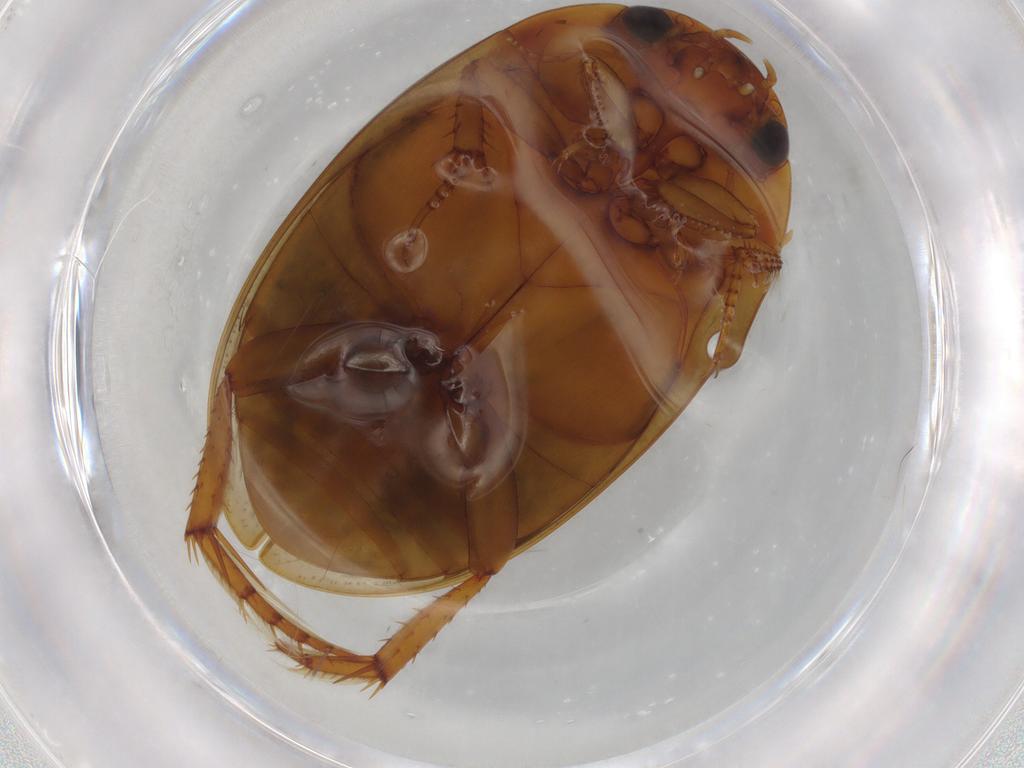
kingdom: Animalia
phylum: Arthropoda
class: Insecta
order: Coleoptera
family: Dytiscidae
